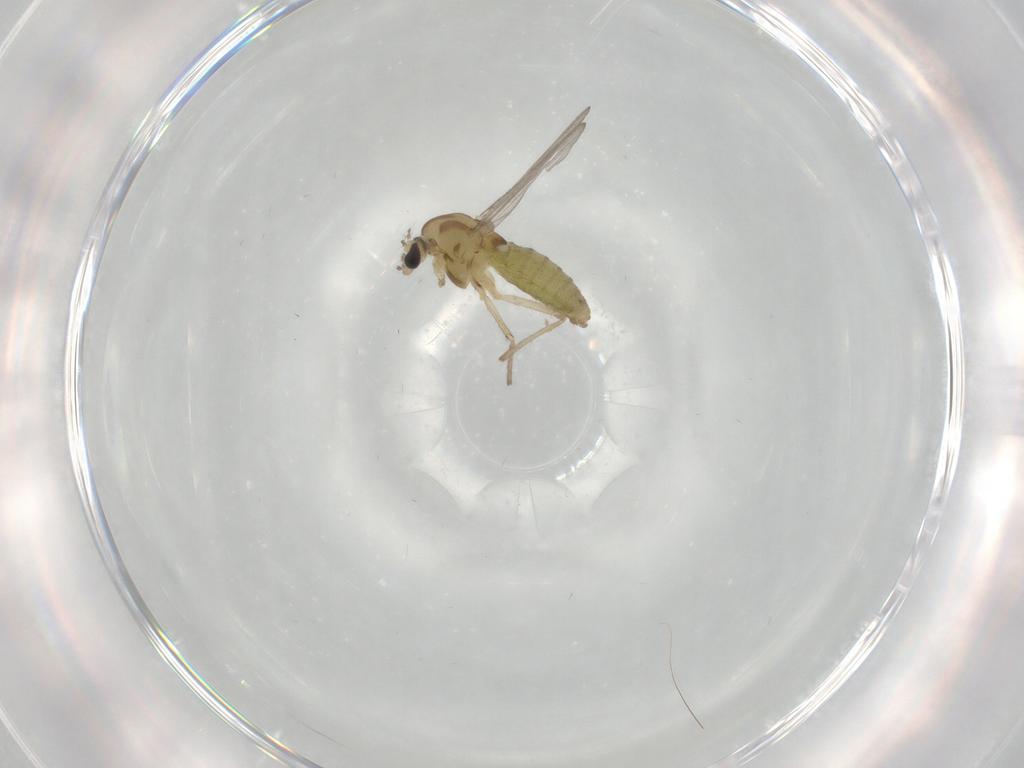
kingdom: Animalia
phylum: Arthropoda
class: Insecta
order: Diptera
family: Chironomidae
